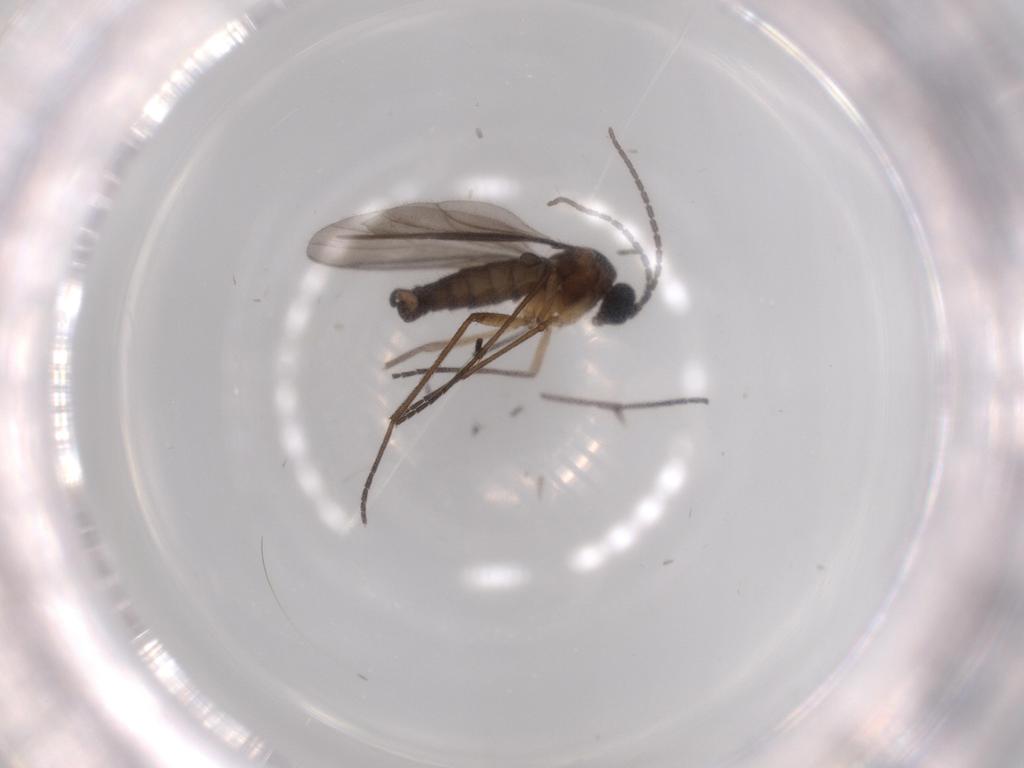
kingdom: Animalia
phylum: Arthropoda
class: Insecta
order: Diptera
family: Sciaridae
